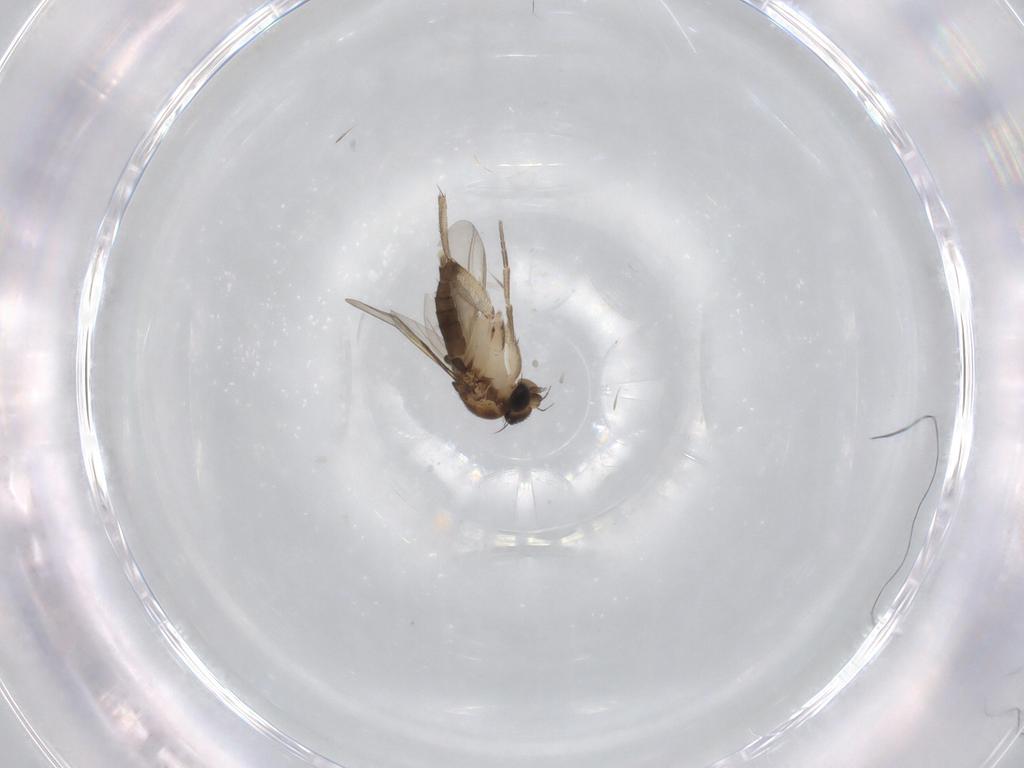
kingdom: Animalia
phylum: Arthropoda
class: Insecta
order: Diptera
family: Phoridae
